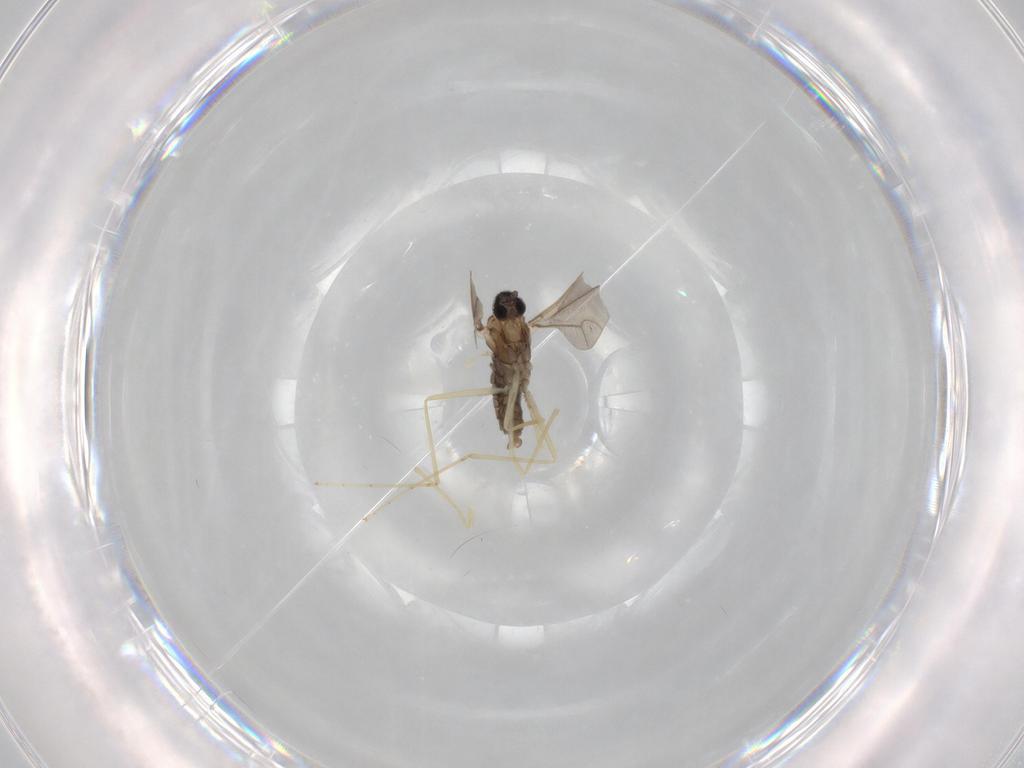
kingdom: Animalia
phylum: Arthropoda
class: Insecta
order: Diptera
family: Cecidomyiidae
